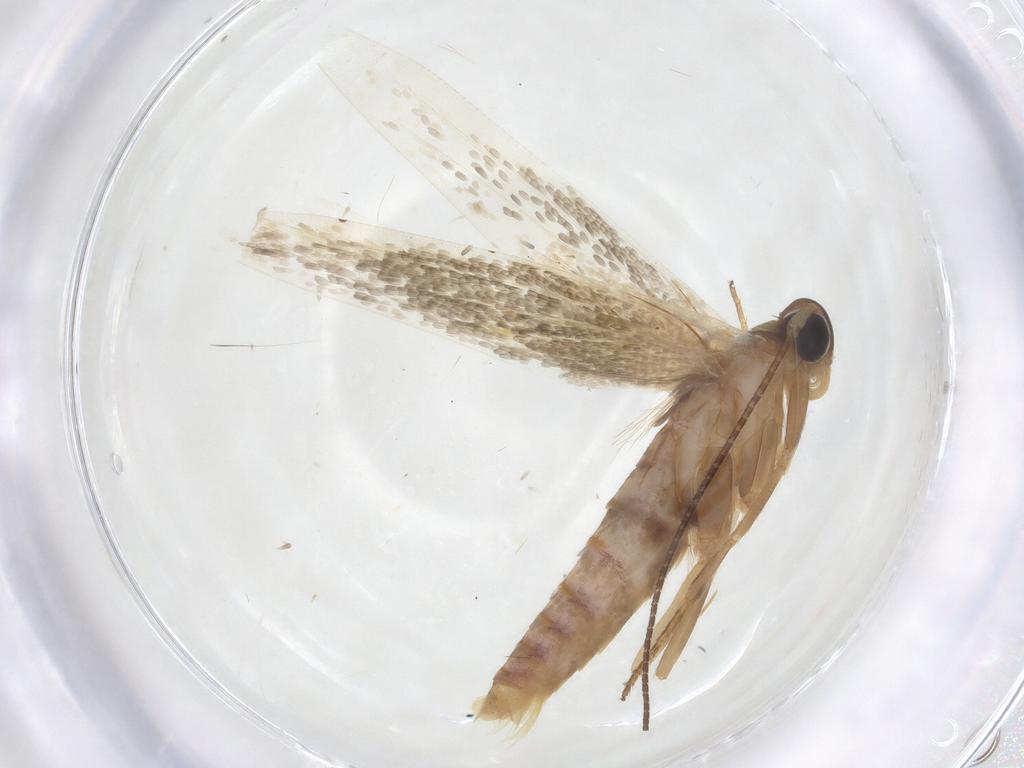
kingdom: Animalia
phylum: Arthropoda
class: Insecta
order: Lepidoptera
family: Stathmopodidae
